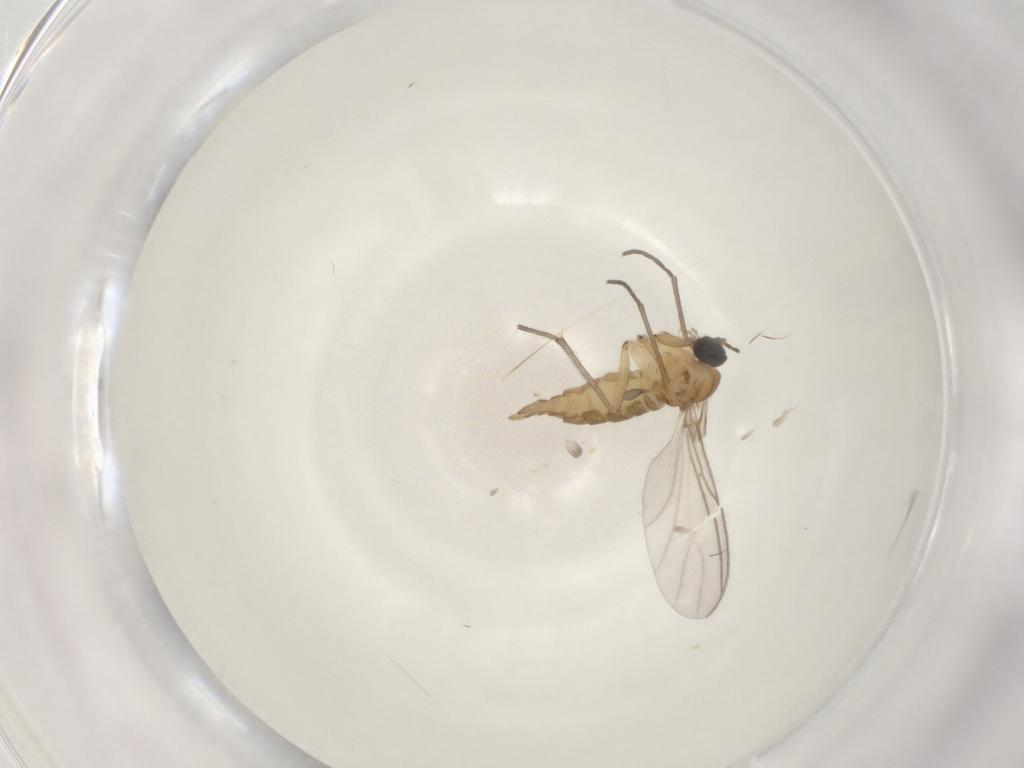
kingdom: Animalia
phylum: Arthropoda
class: Insecta
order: Diptera
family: Sciaridae
